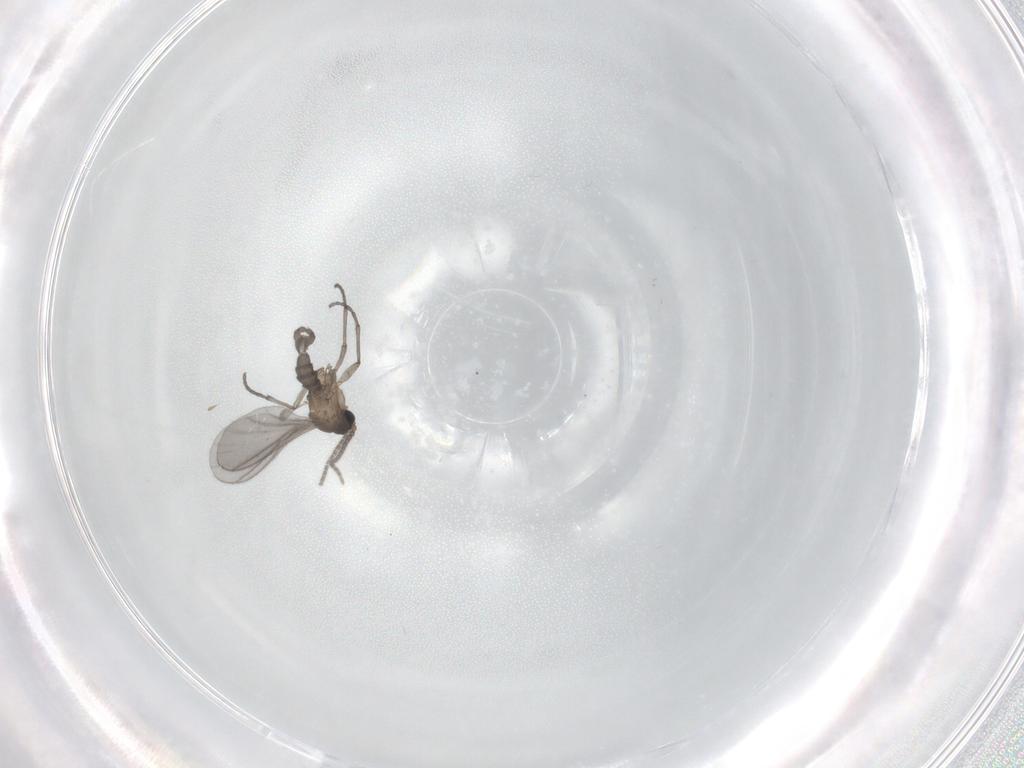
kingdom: Animalia
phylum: Arthropoda
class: Insecta
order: Diptera
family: Sciaridae
